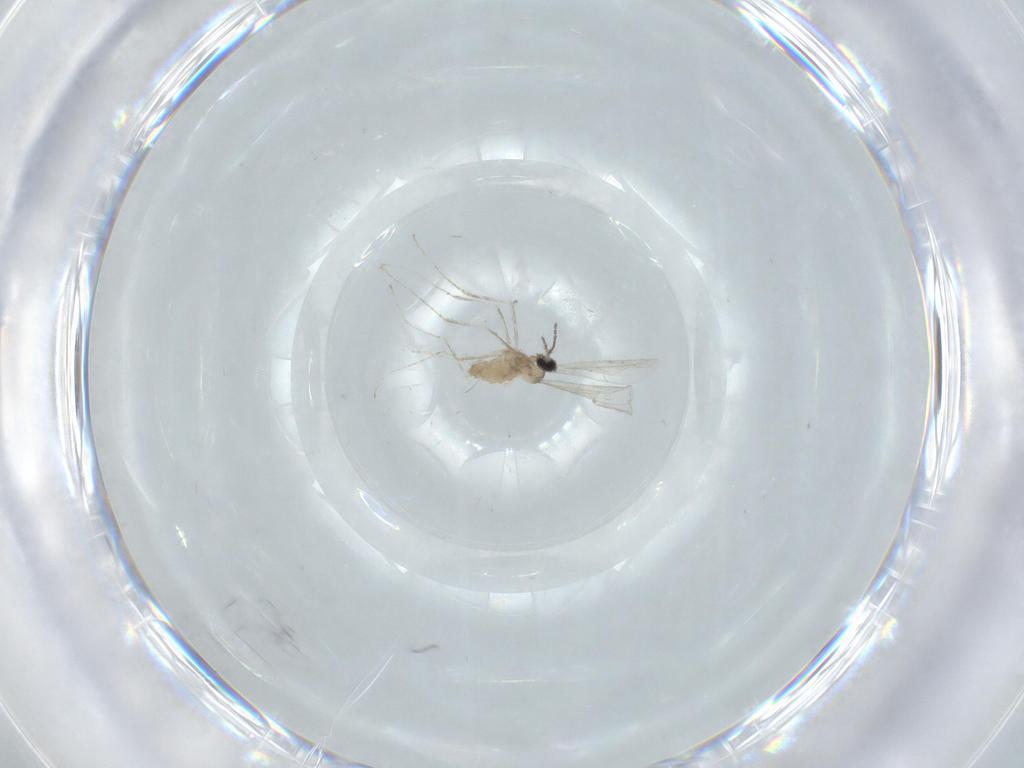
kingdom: Animalia
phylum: Arthropoda
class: Insecta
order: Diptera
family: Cecidomyiidae
